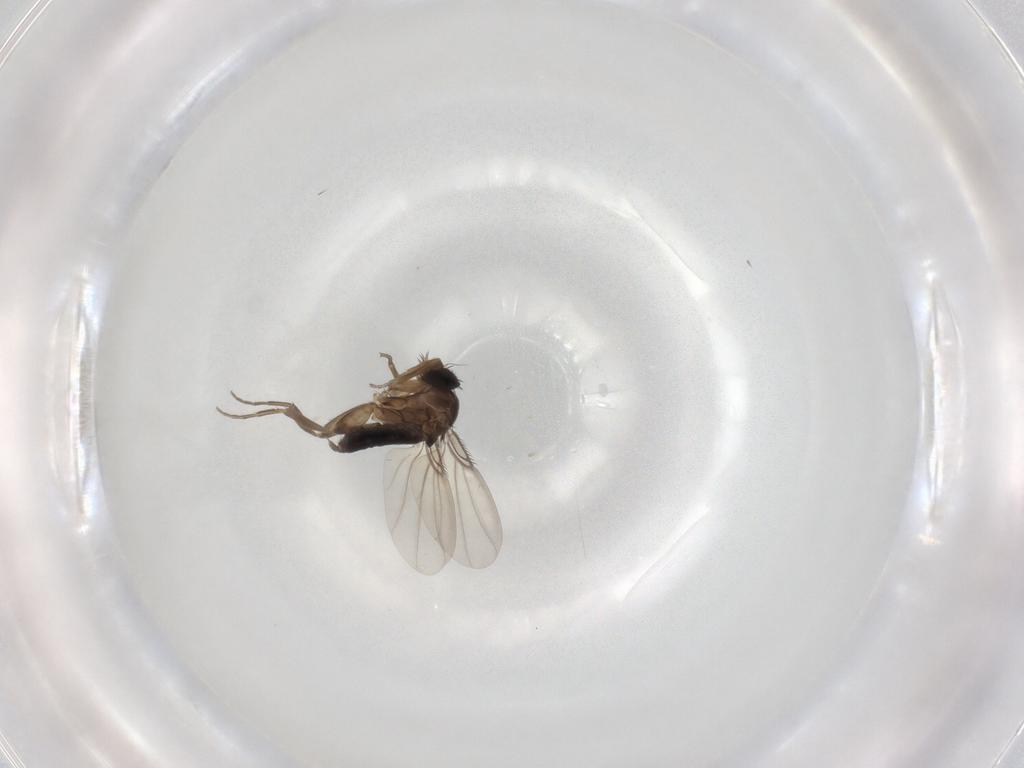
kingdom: Animalia
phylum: Arthropoda
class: Insecta
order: Diptera
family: Phoridae
